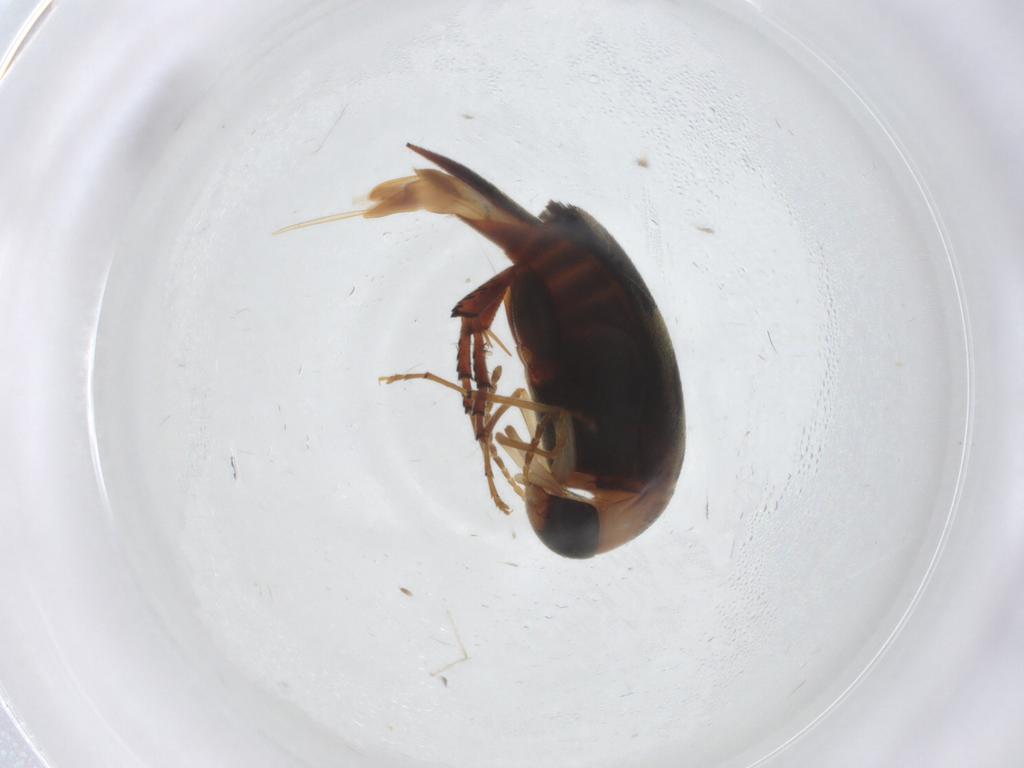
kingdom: Animalia
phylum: Arthropoda
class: Insecta
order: Coleoptera
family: Mordellidae
